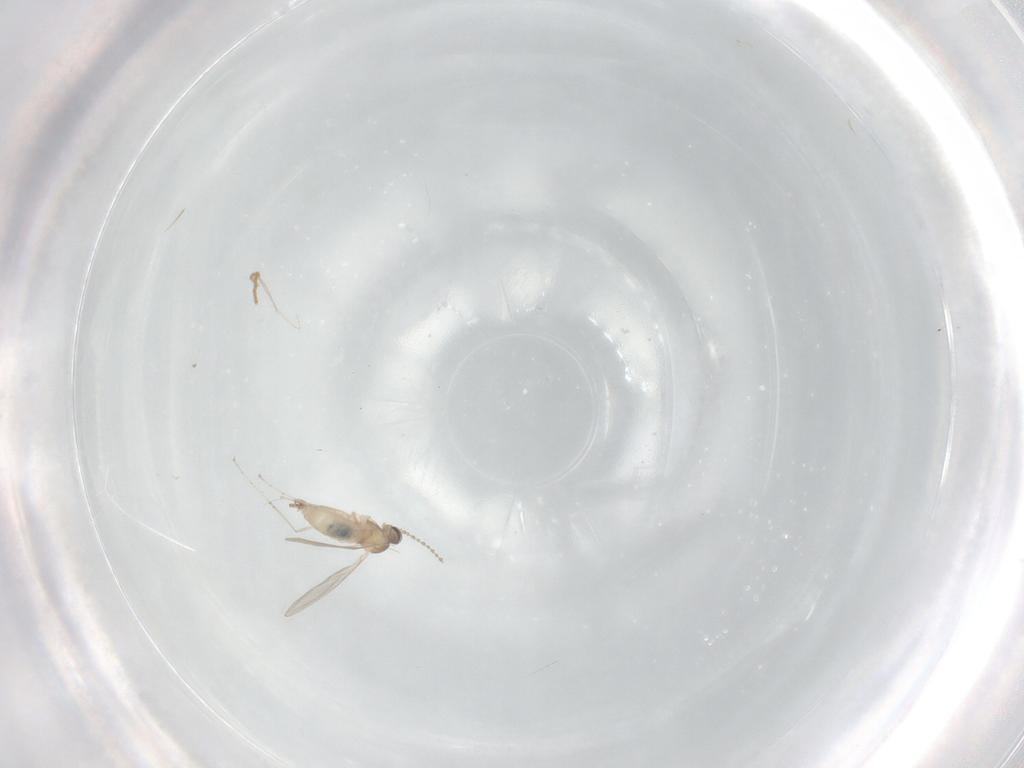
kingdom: Animalia
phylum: Arthropoda
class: Insecta
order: Diptera
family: Cecidomyiidae
